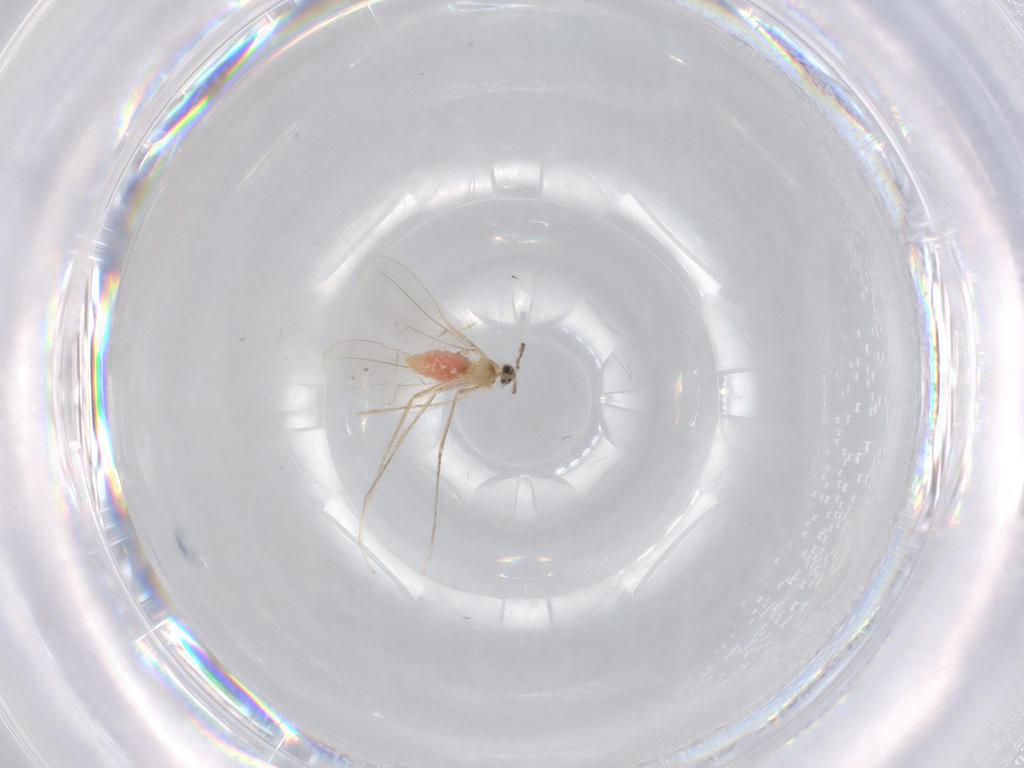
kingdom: Animalia
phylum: Arthropoda
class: Insecta
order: Diptera
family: Cecidomyiidae
